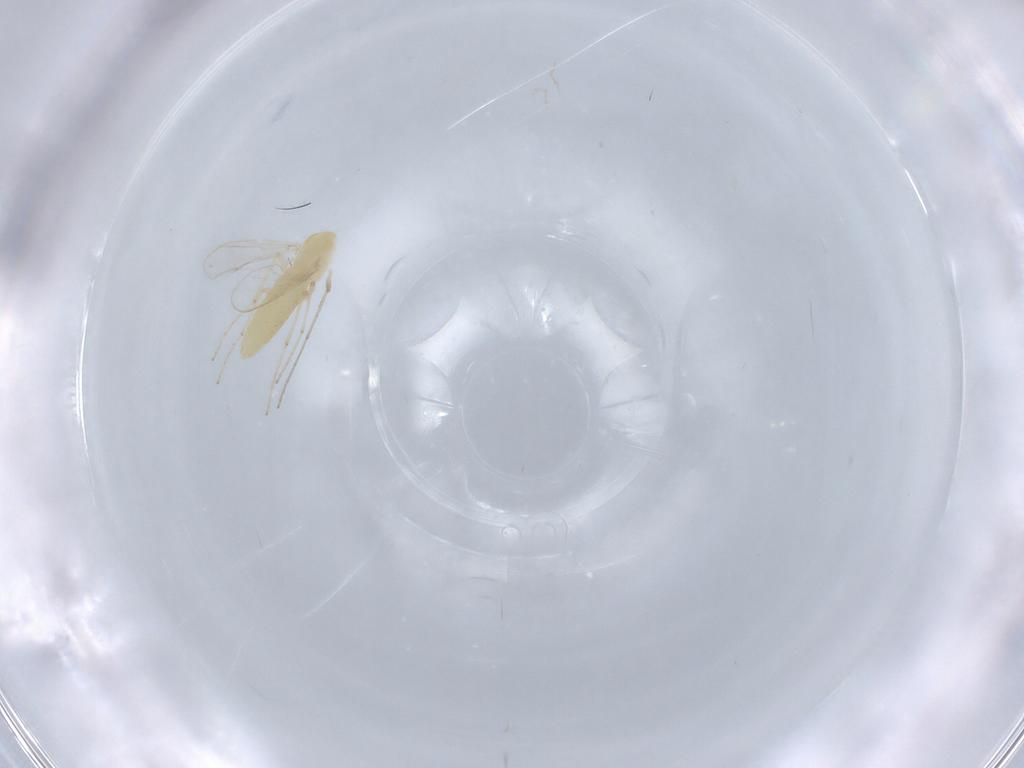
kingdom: Animalia
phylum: Arthropoda
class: Insecta
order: Diptera
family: Chironomidae
